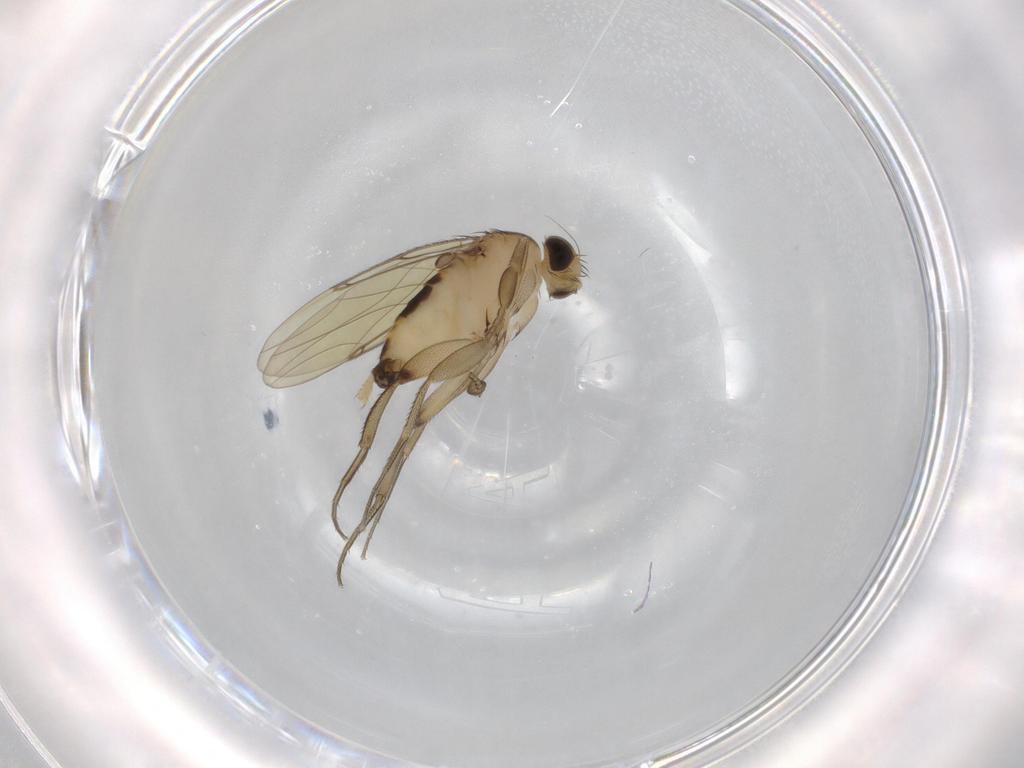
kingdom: Animalia
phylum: Arthropoda
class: Insecta
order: Diptera
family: Phoridae
